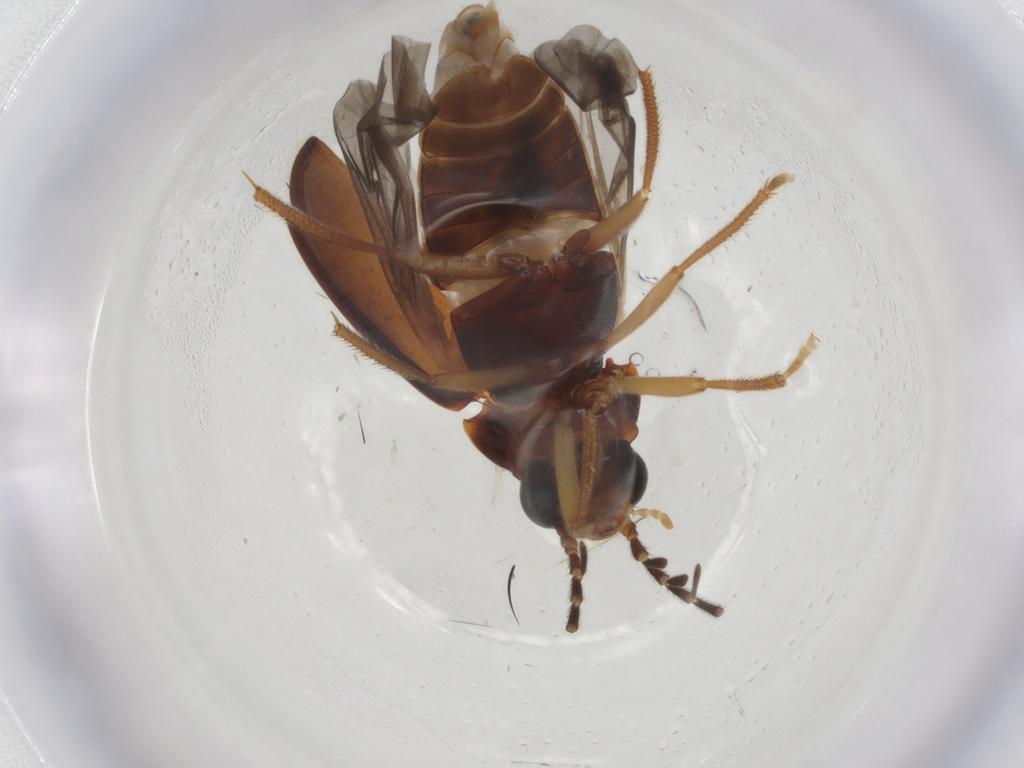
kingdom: Animalia
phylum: Arthropoda
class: Insecta
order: Coleoptera
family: Ptilodactylidae
